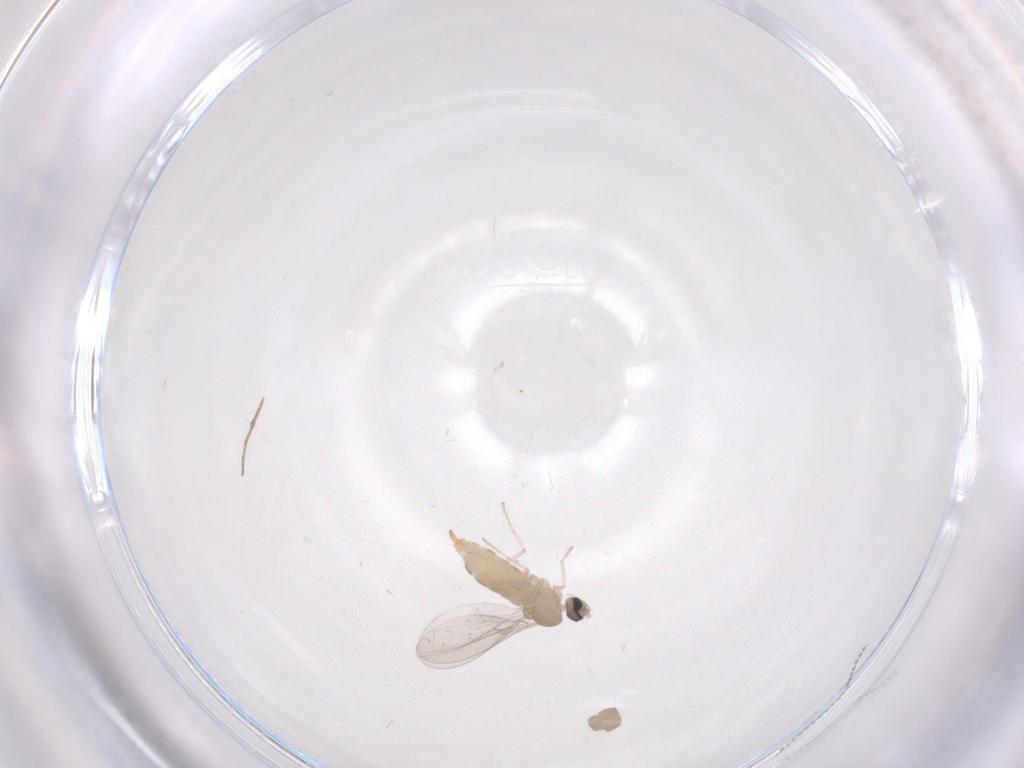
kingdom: Animalia
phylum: Arthropoda
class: Insecta
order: Diptera
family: Cecidomyiidae
